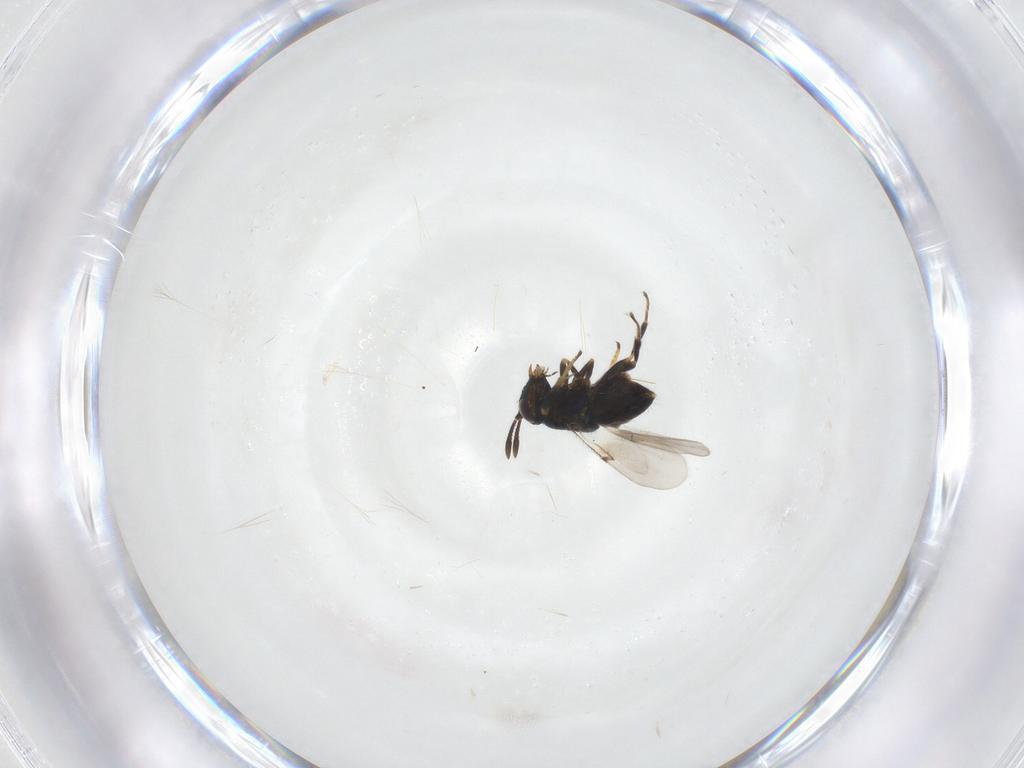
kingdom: Animalia
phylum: Arthropoda
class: Insecta
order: Hymenoptera
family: Encyrtidae
